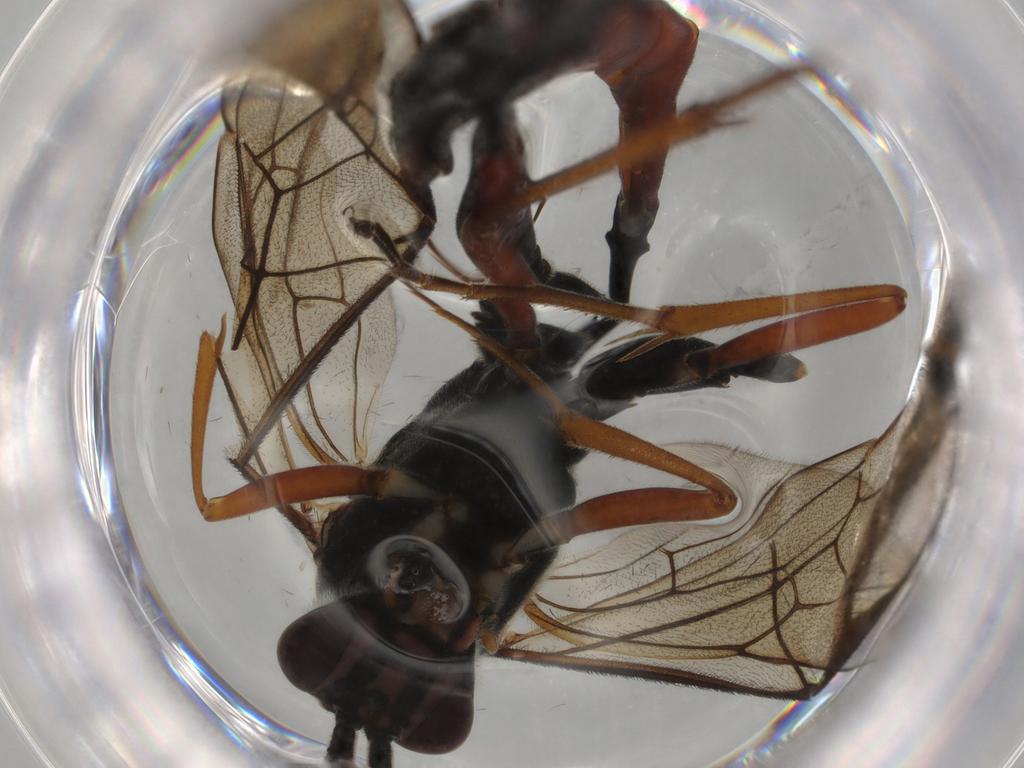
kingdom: Animalia
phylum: Arthropoda
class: Insecta
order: Hymenoptera
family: Ichneumonidae
